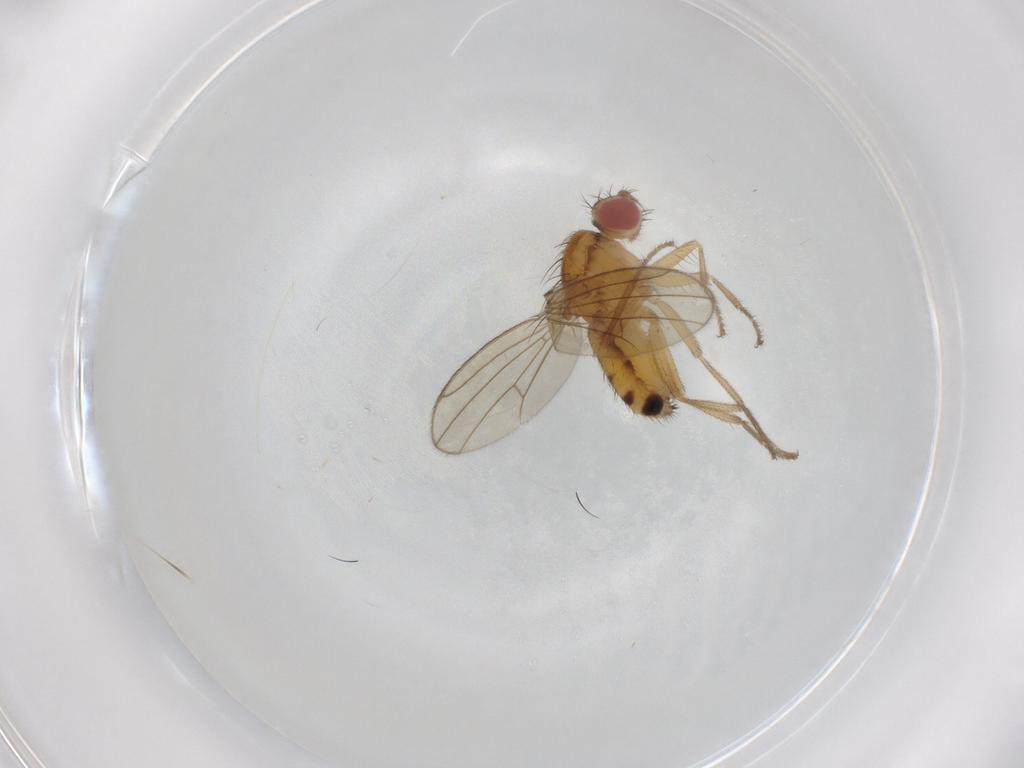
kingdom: Animalia
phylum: Arthropoda
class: Insecta
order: Diptera
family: Drosophilidae
